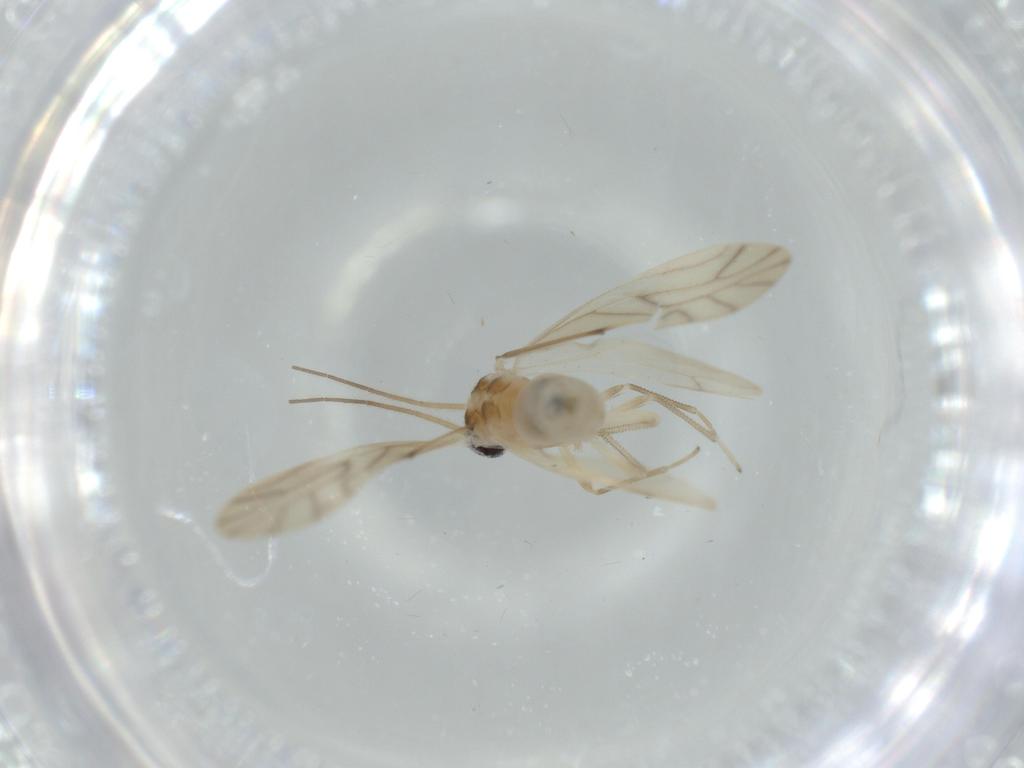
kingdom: Animalia
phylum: Arthropoda
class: Insecta
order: Psocodea
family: Caeciliusidae
